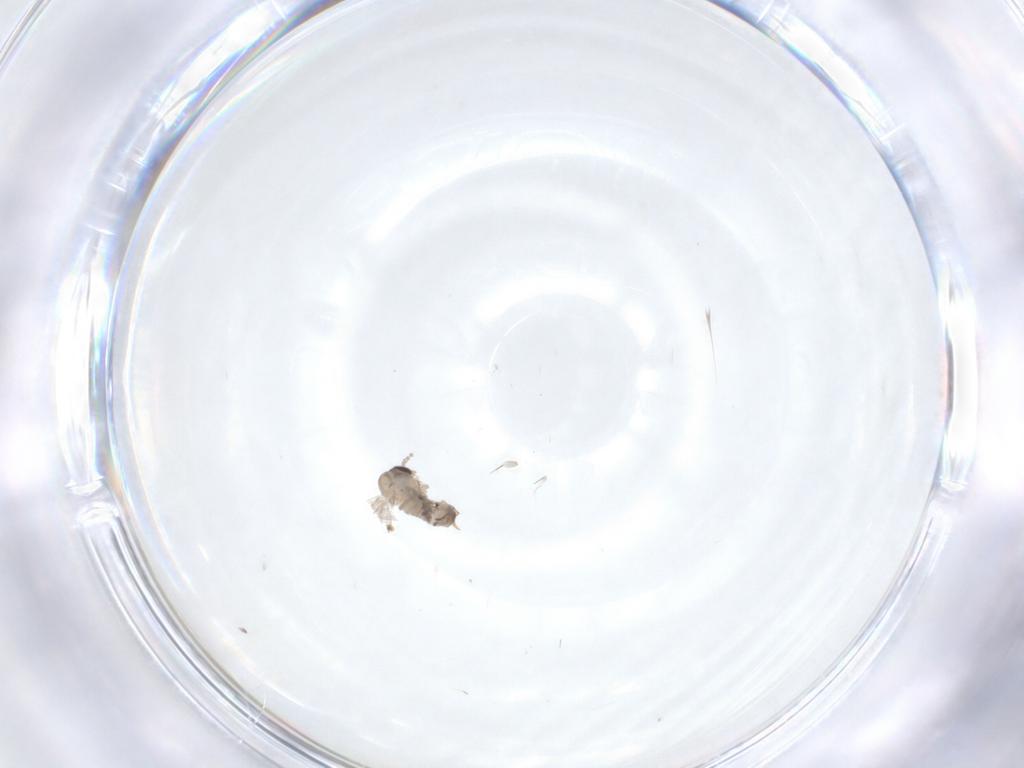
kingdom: Animalia
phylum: Arthropoda
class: Insecta
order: Diptera
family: Psychodidae
